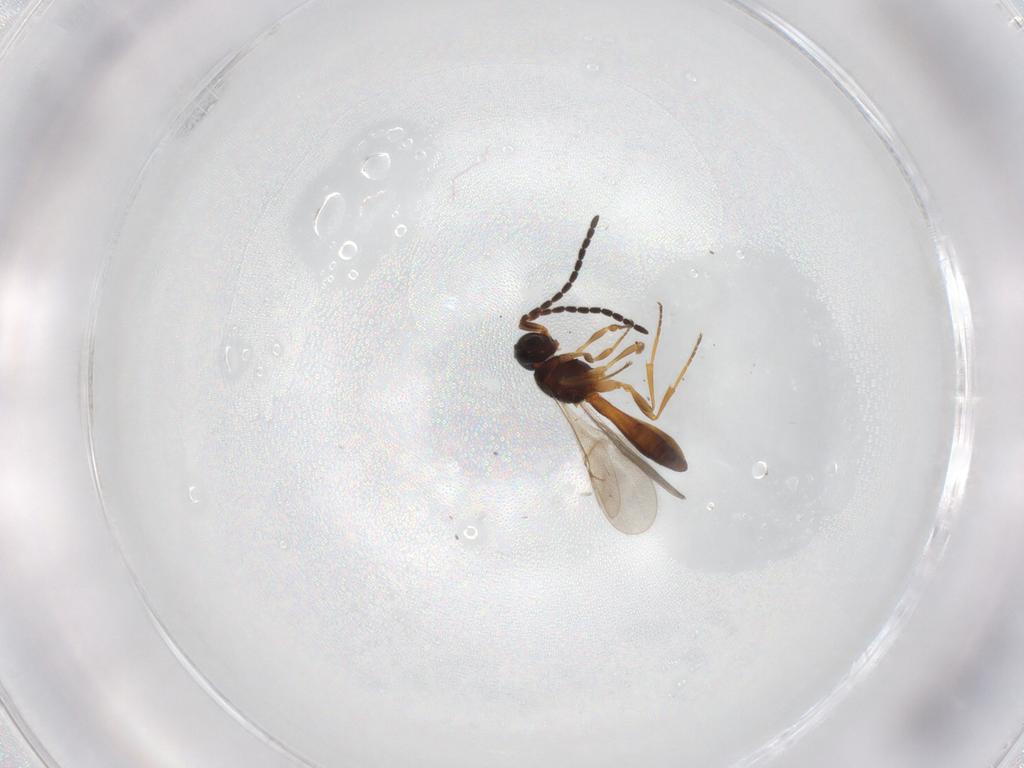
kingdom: Animalia
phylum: Arthropoda
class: Insecta
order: Hymenoptera
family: Scelionidae
